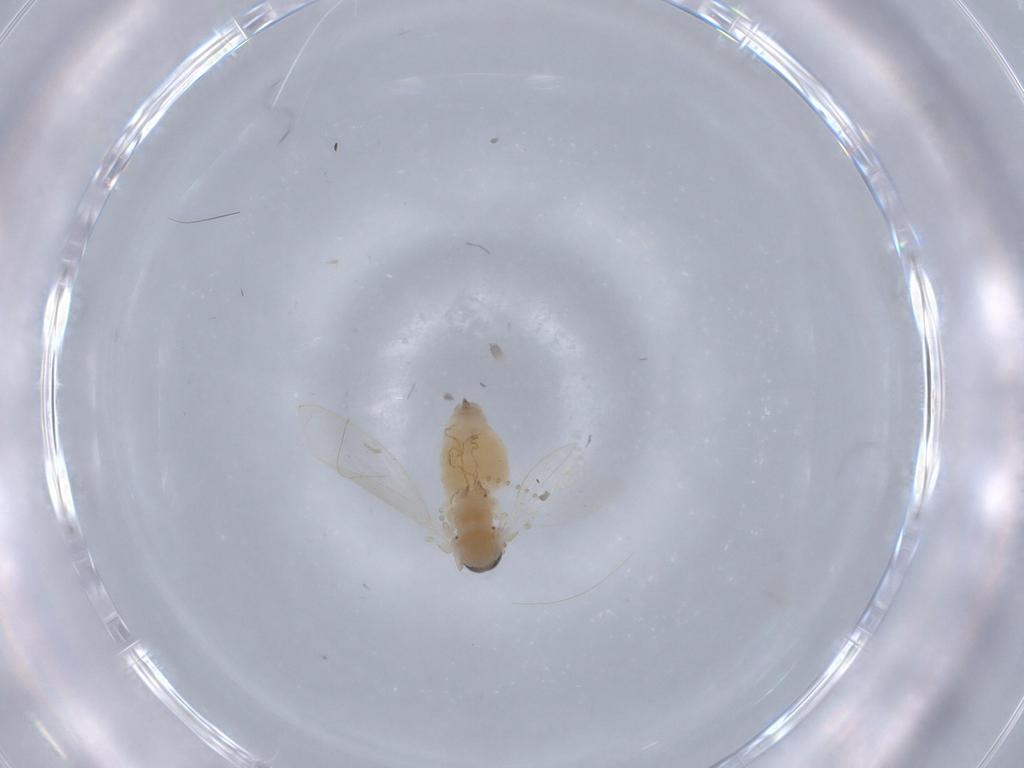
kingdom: Animalia
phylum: Arthropoda
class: Insecta
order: Diptera
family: Psychodidae
